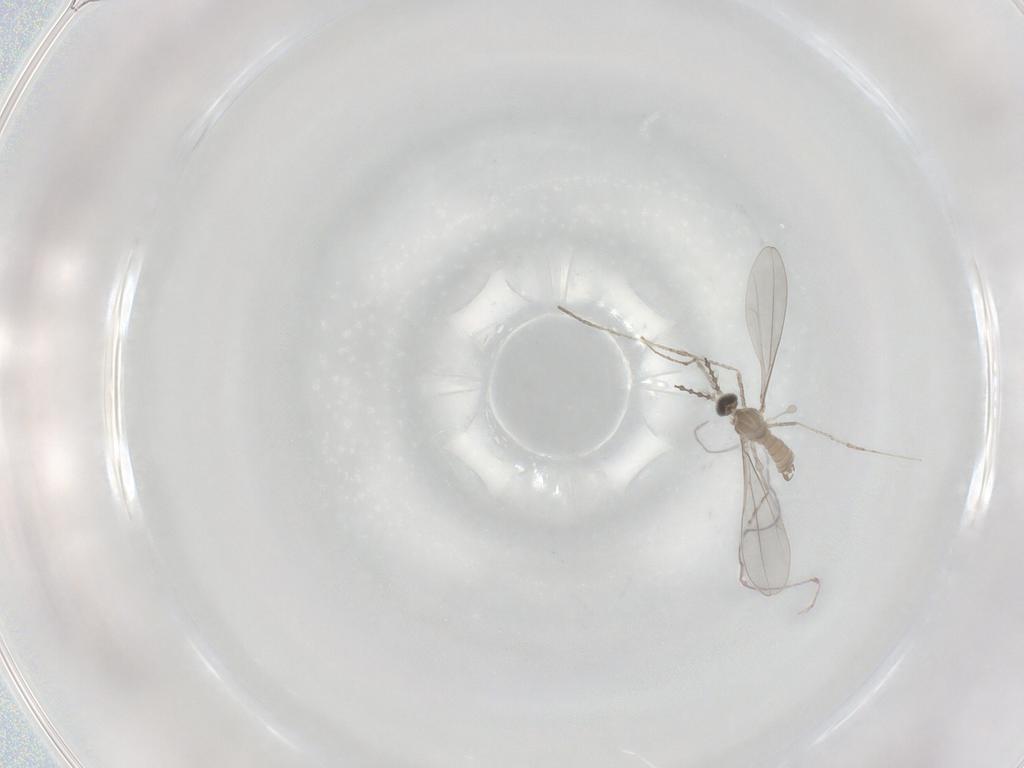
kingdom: Animalia
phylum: Arthropoda
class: Insecta
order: Diptera
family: Cecidomyiidae
